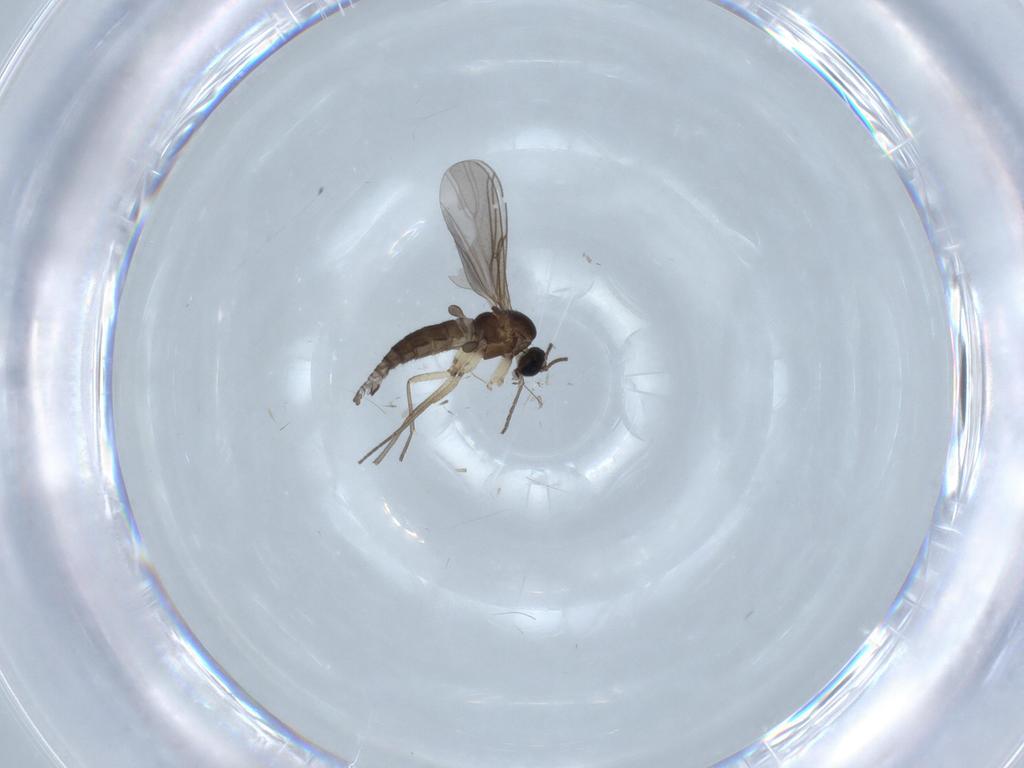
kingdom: Animalia
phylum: Arthropoda
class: Insecta
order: Diptera
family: Sciaridae
